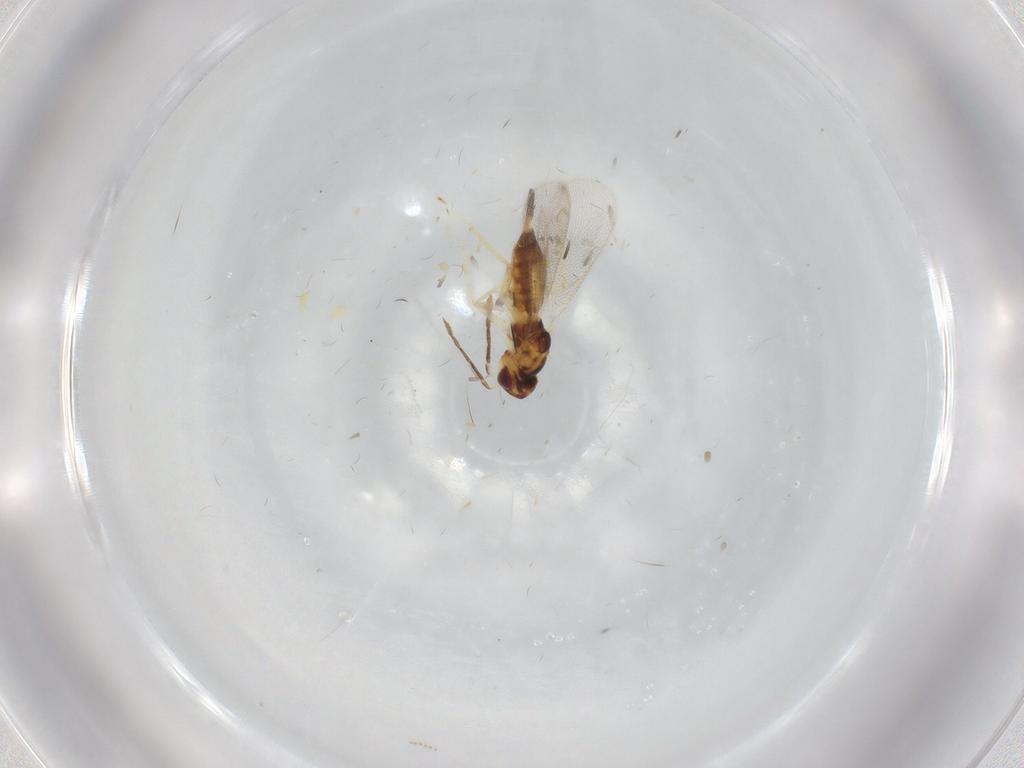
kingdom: Animalia
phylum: Arthropoda
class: Insecta
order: Hymenoptera
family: Eulophidae
